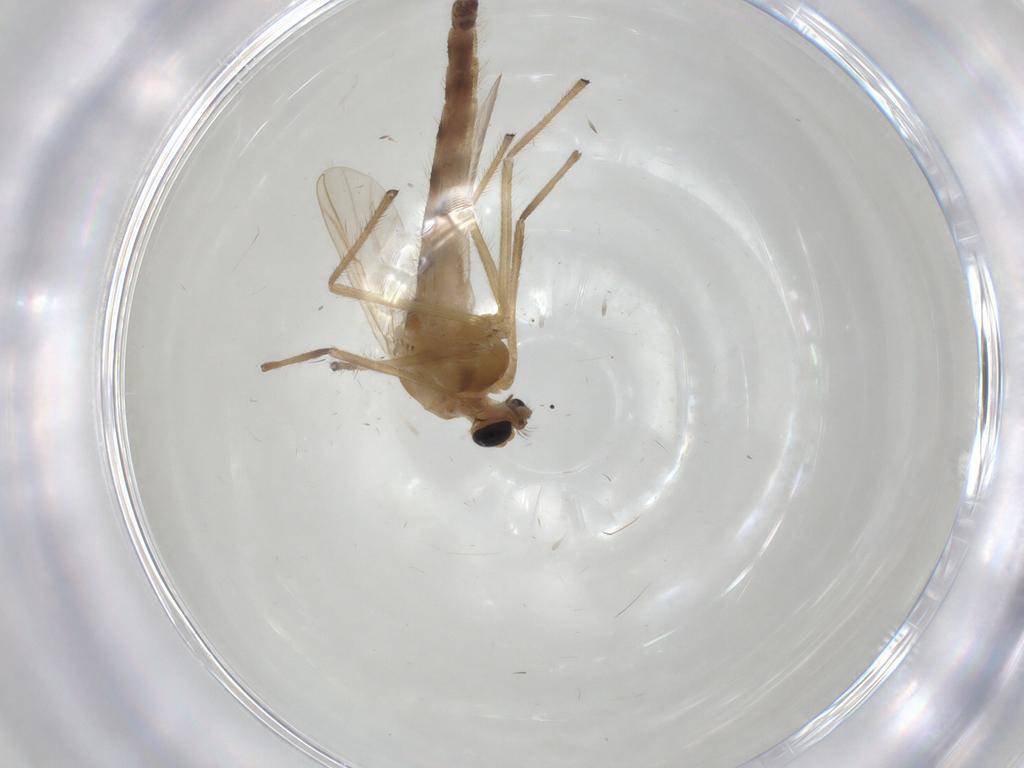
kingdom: Animalia
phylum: Arthropoda
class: Insecta
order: Diptera
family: Chironomidae
